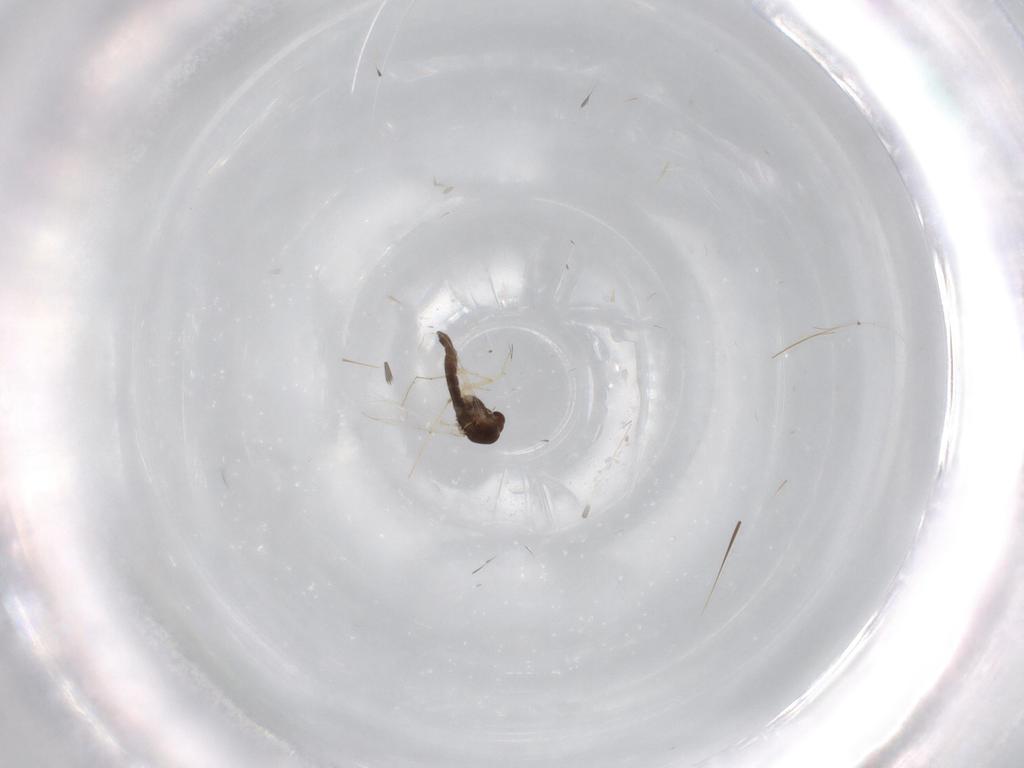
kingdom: Animalia
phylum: Arthropoda
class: Insecta
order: Diptera
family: Chironomidae
